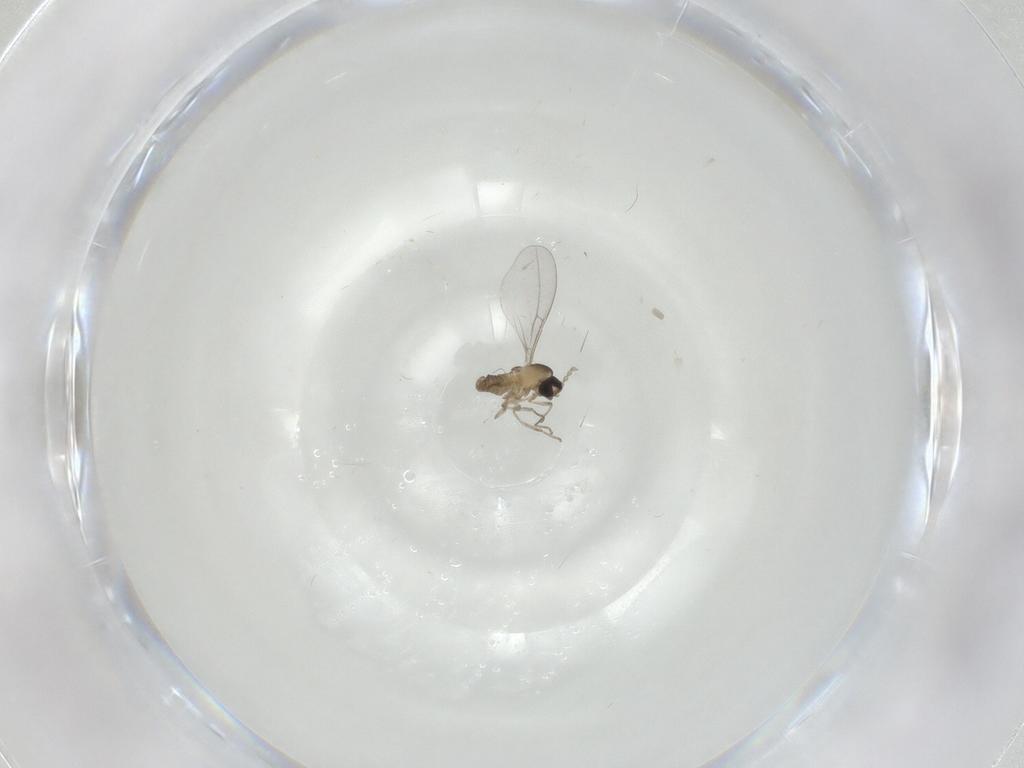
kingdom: Animalia
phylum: Arthropoda
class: Insecta
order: Diptera
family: Cecidomyiidae
